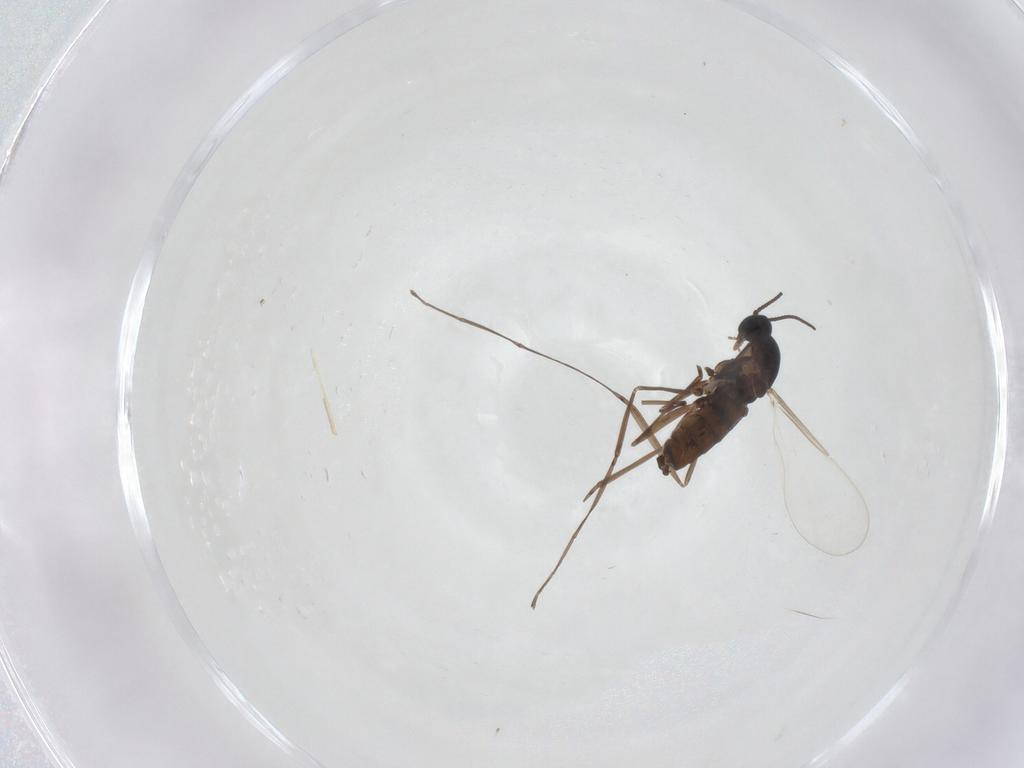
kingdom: Animalia
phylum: Arthropoda
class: Insecta
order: Diptera
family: Cecidomyiidae
